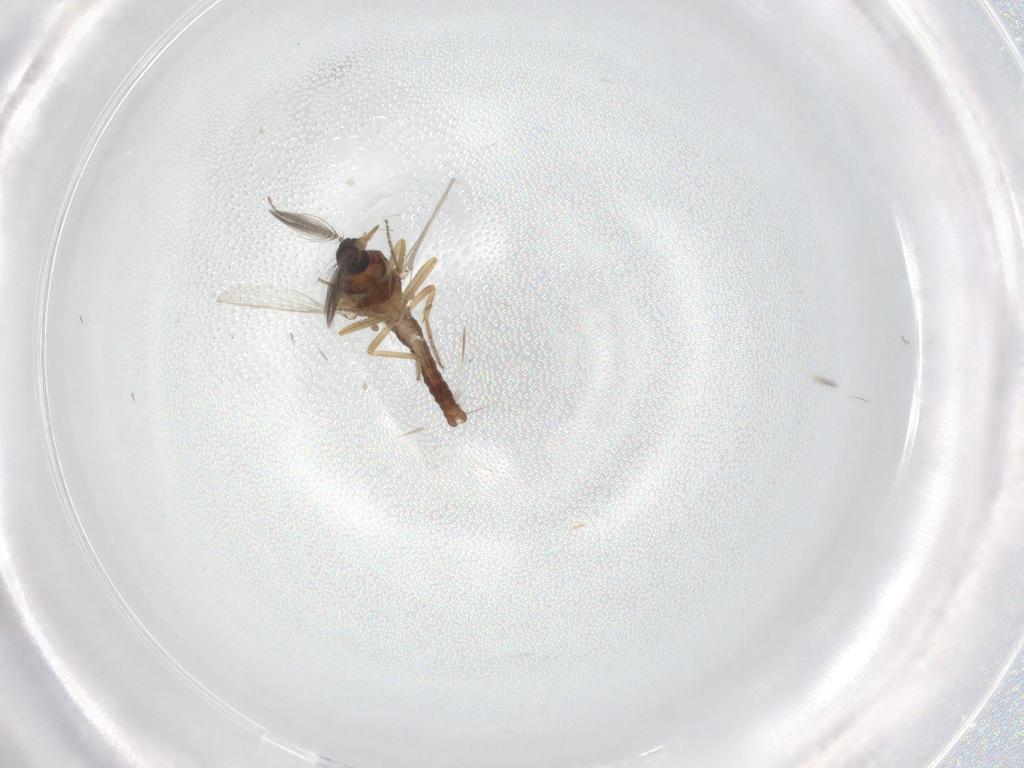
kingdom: Animalia
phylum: Arthropoda
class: Insecta
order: Diptera
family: Ceratopogonidae
